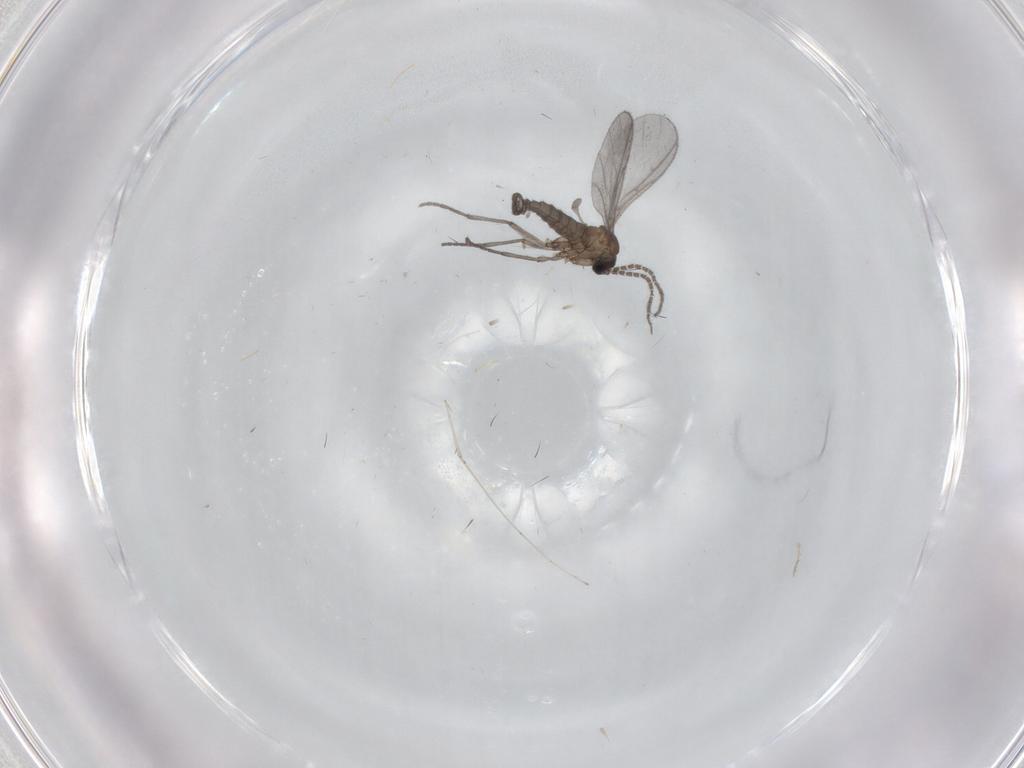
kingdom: Animalia
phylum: Arthropoda
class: Insecta
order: Diptera
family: Sciaridae
